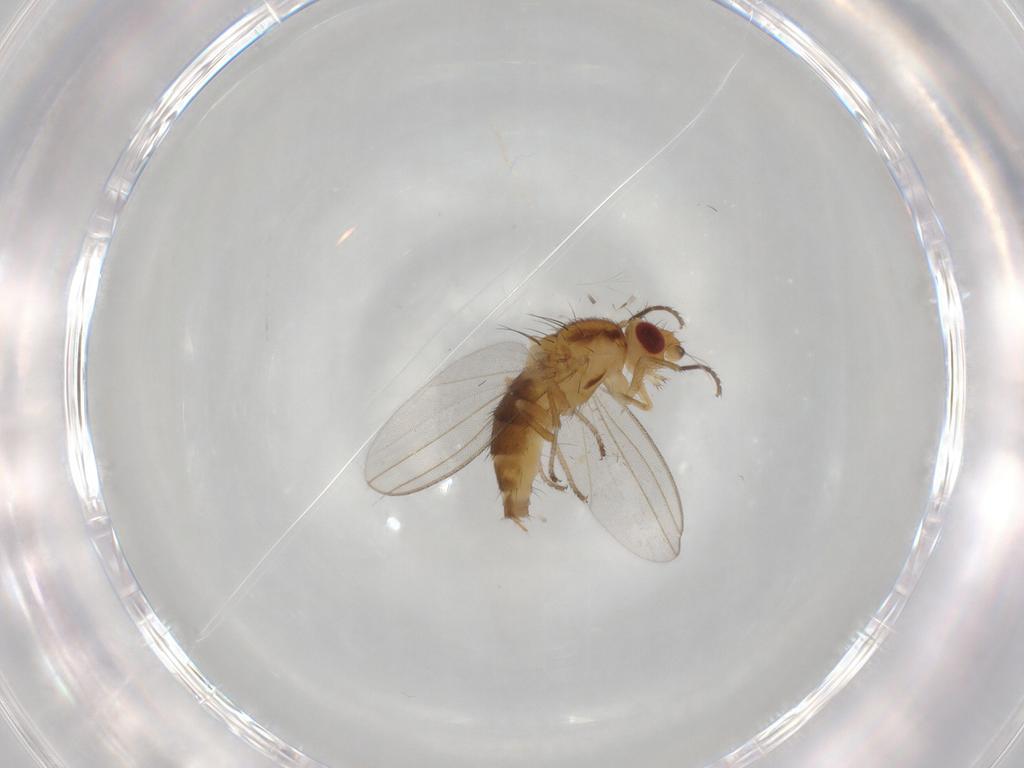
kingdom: Animalia
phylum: Arthropoda
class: Insecta
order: Diptera
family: Milichiidae
